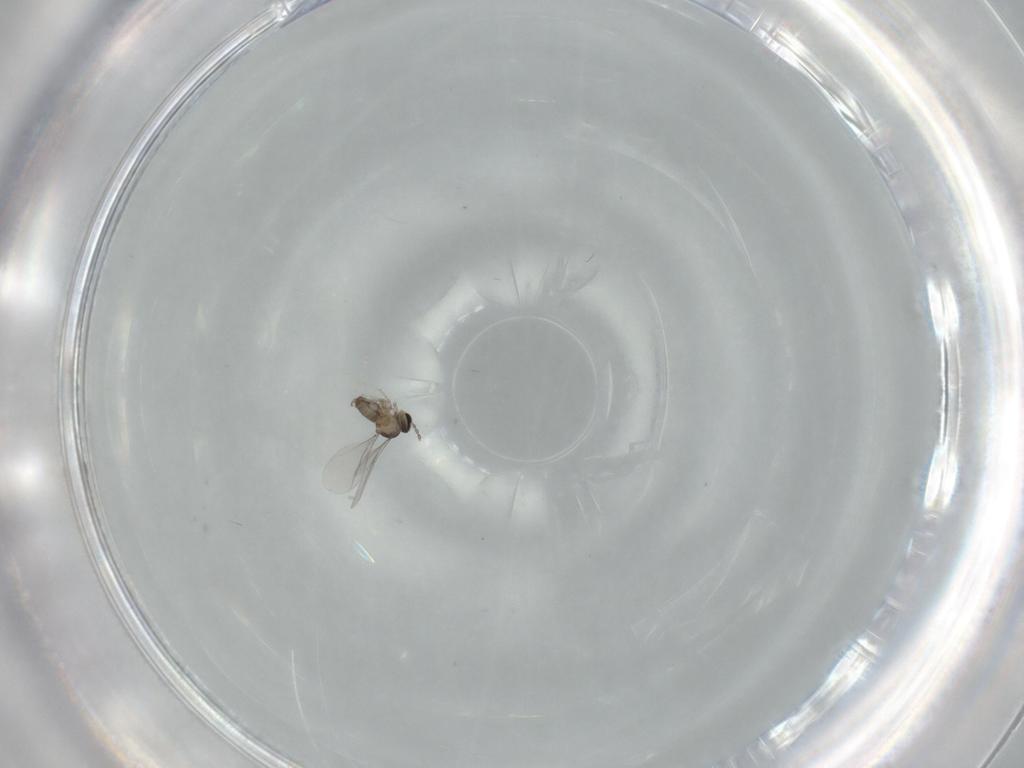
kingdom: Animalia
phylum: Arthropoda
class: Insecta
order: Diptera
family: Cecidomyiidae
